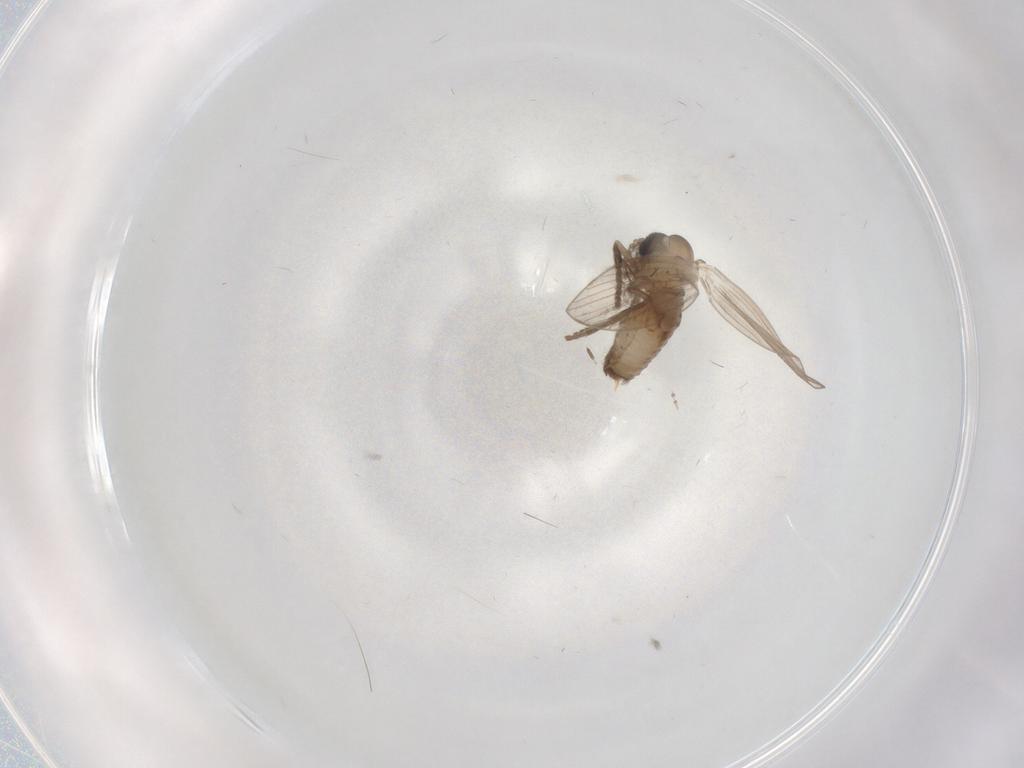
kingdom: Animalia
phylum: Arthropoda
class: Insecta
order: Diptera
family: Psychodidae
